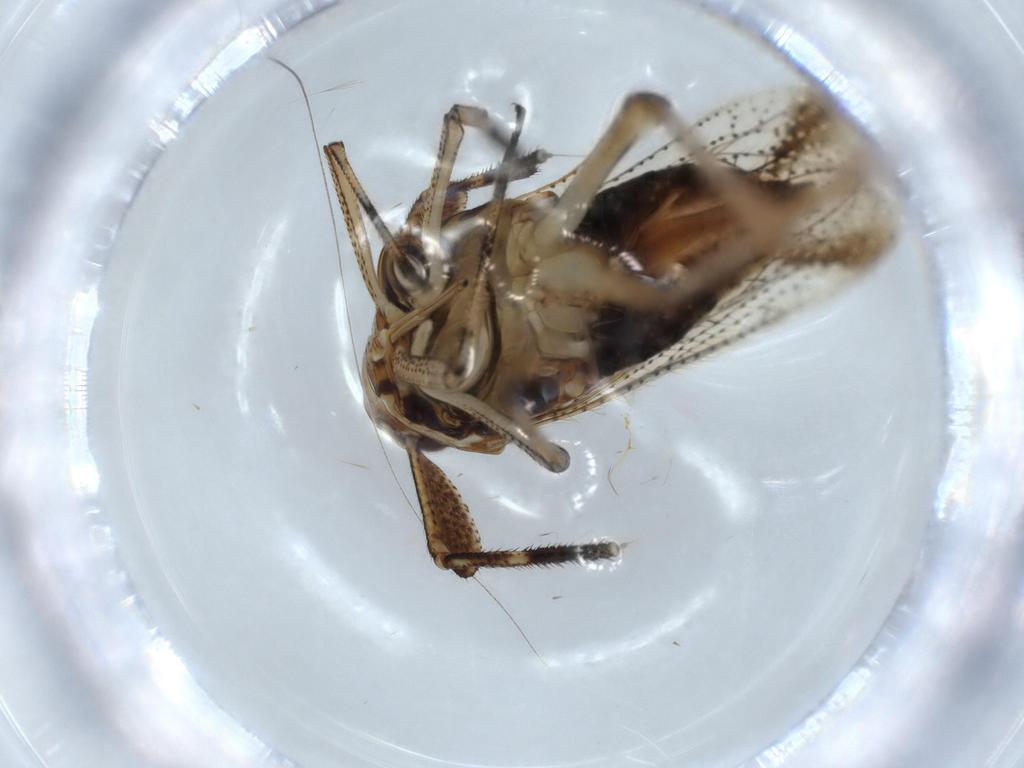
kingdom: Animalia
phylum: Arthropoda
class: Insecta
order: Hemiptera
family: Delphacidae
